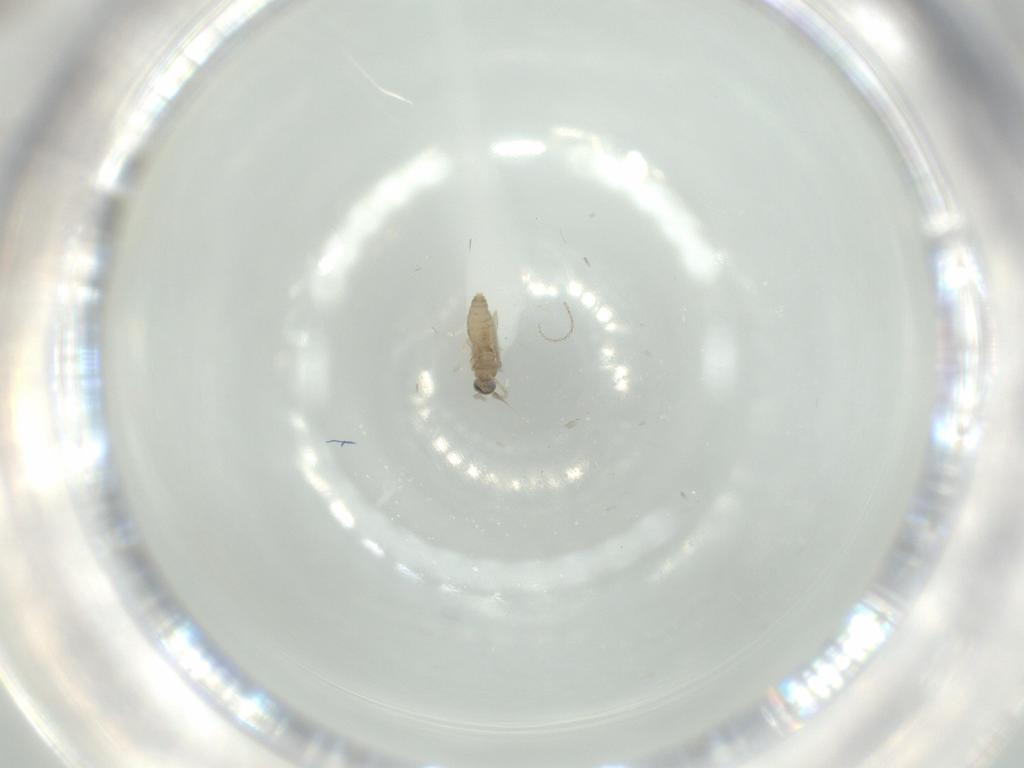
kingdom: Animalia
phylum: Arthropoda
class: Insecta
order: Diptera
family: Cecidomyiidae
